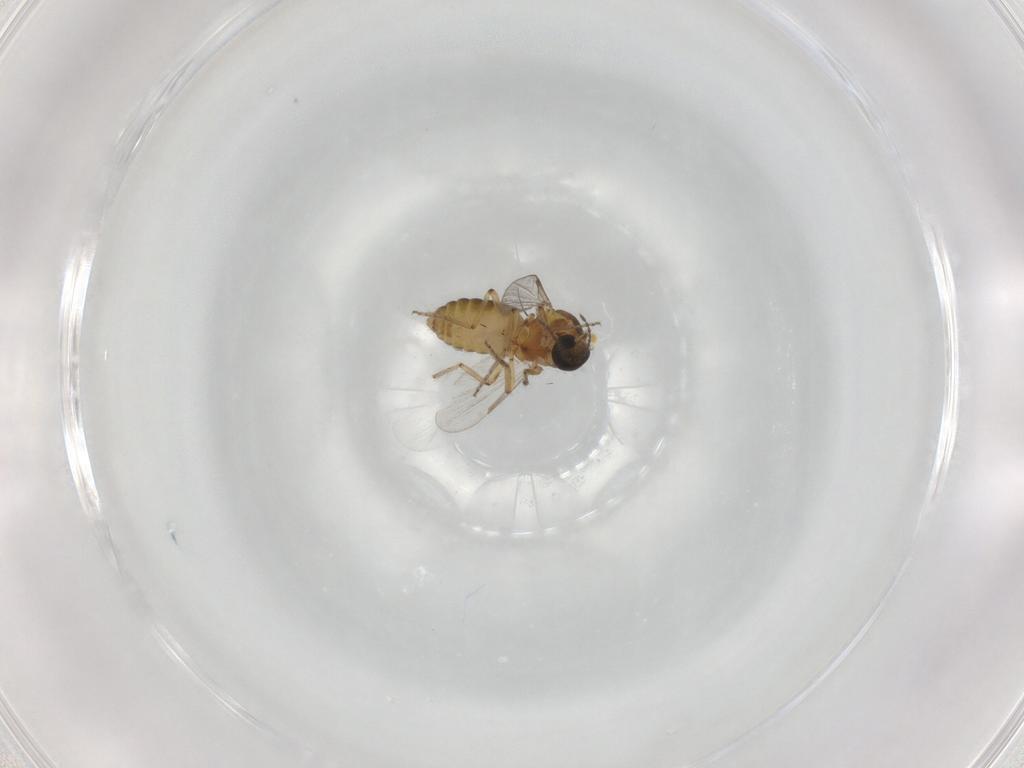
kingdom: Animalia
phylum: Arthropoda
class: Insecta
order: Diptera
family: Ceratopogonidae
